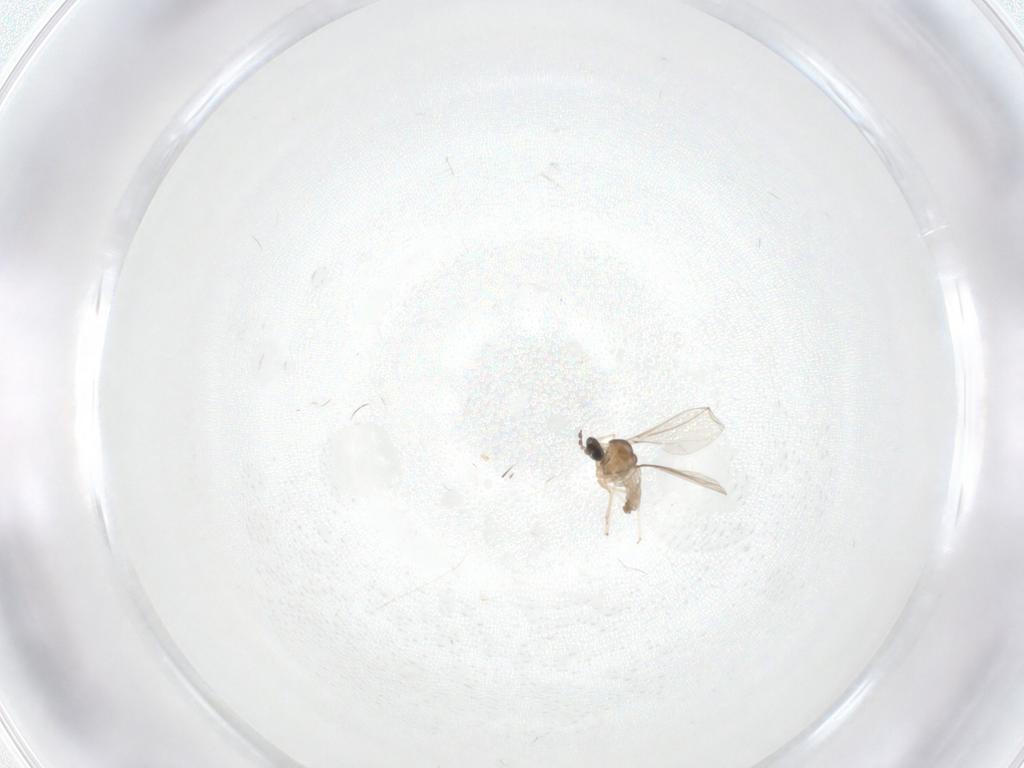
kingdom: Animalia
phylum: Arthropoda
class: Insecta
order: Diptera
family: Cecidomyiidae
